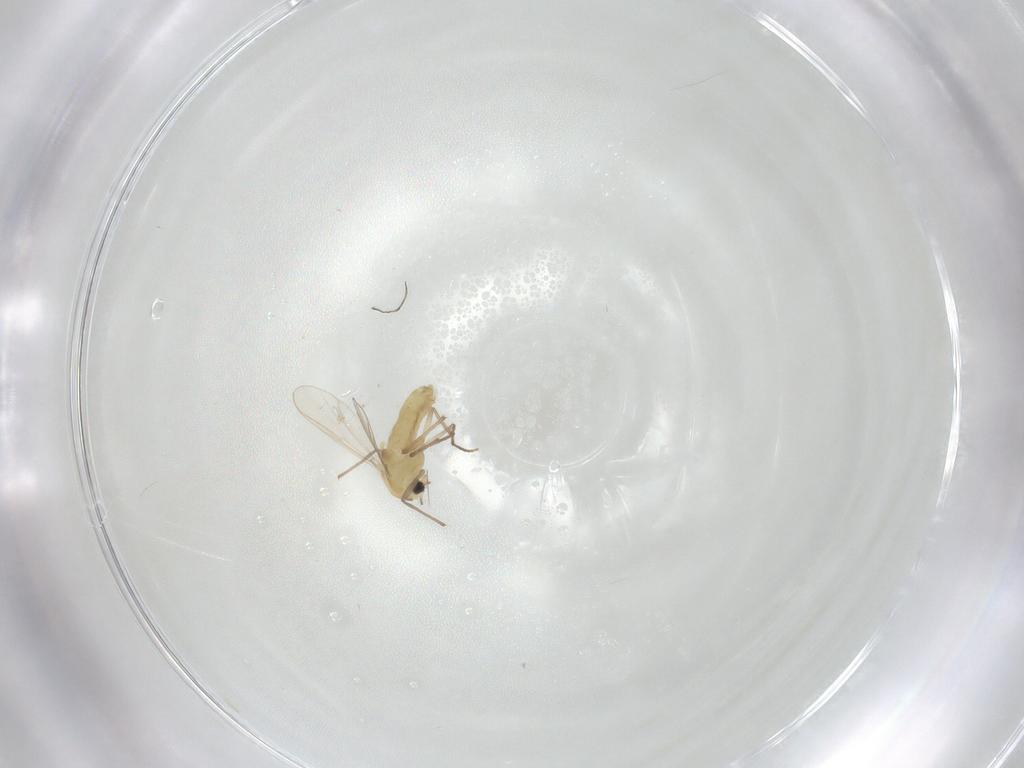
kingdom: Animalia
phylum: Arthropoda
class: Insecta
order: Diptera
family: Chironomidae
